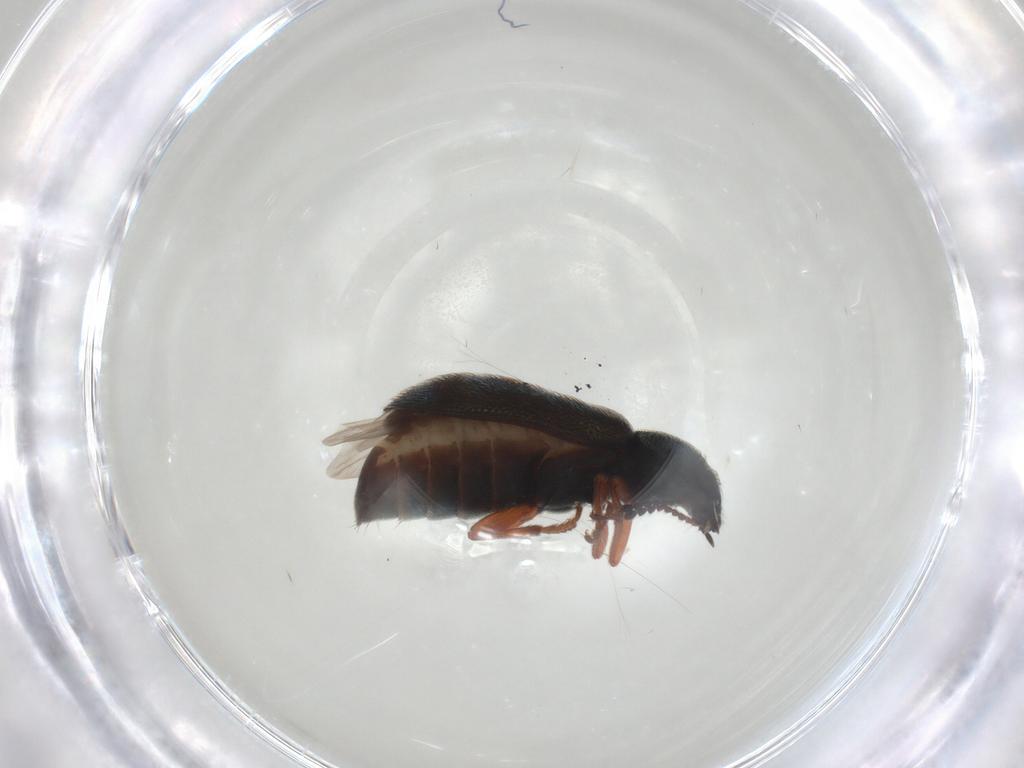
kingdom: Animalia
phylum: Arthropoda
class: Insecta
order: Coleoptera
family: Melyridae
